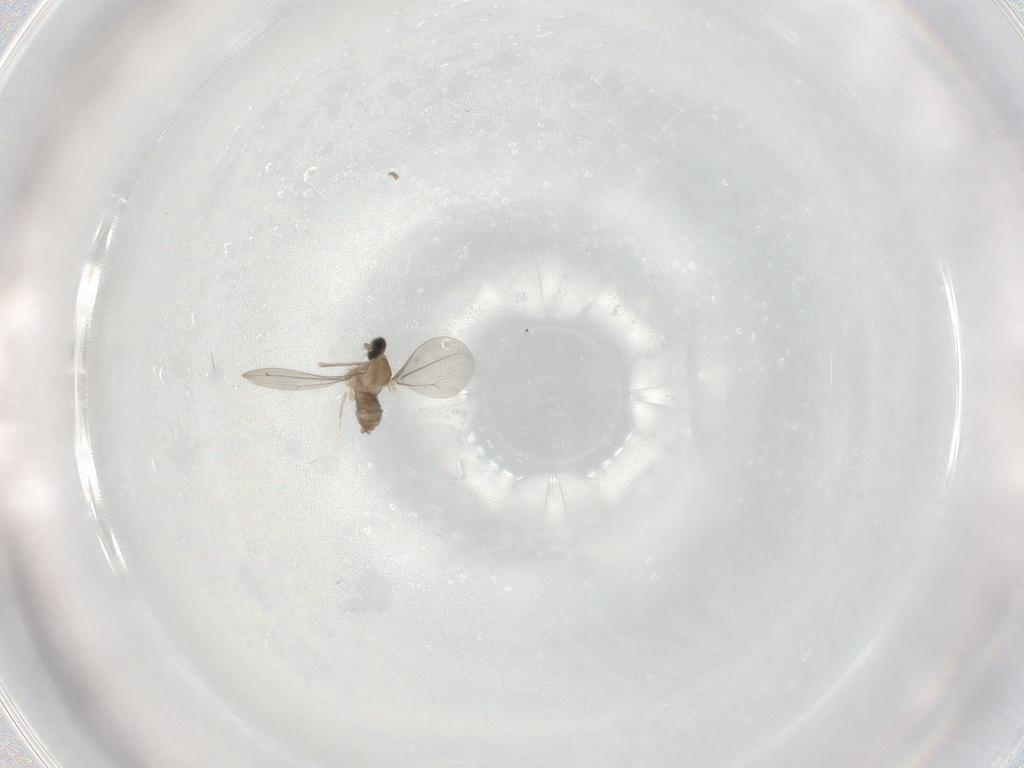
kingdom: Animalia
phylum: Arthropoda
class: Insecta
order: Diptera
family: Cecidomyiidae
